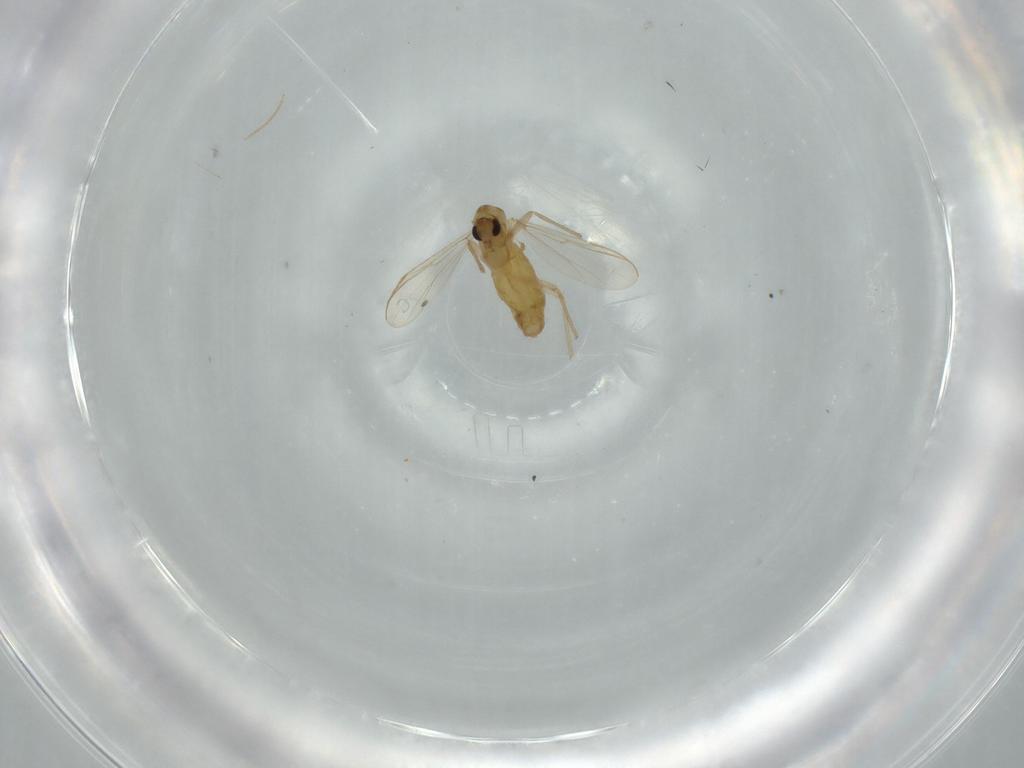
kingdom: Animalia
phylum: Arthropoda
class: Insecta
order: Diptera
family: Chironomidae
